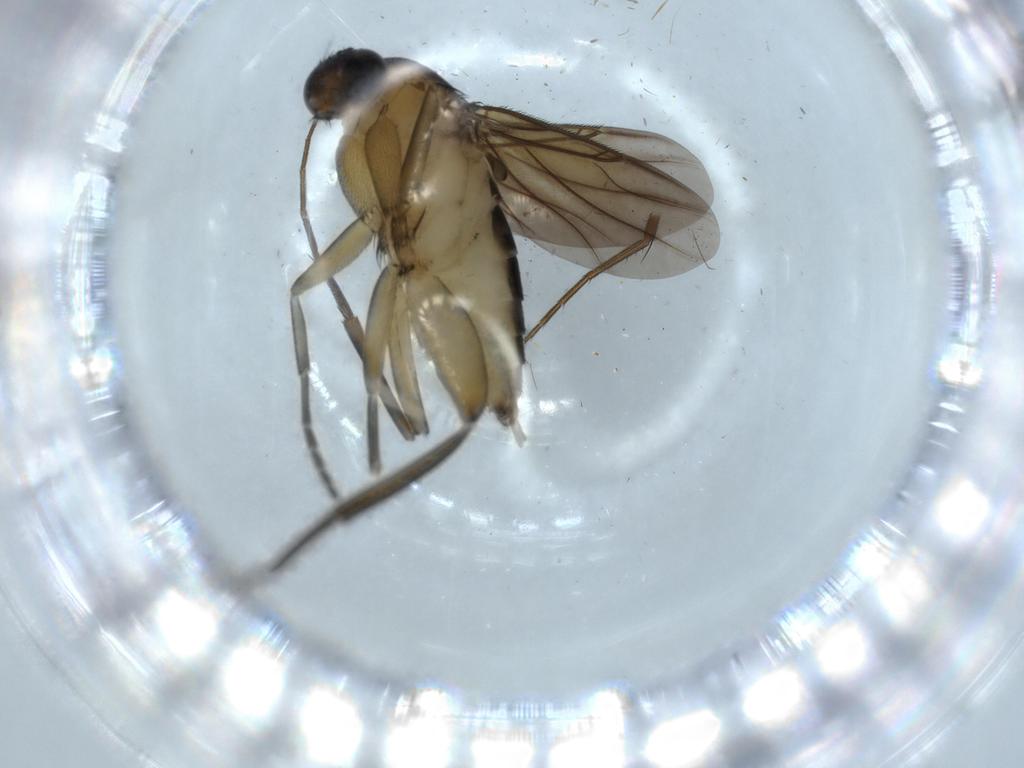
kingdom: Animalia
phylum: Arthropoda
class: Insecta
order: Diptera
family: Phoridae
